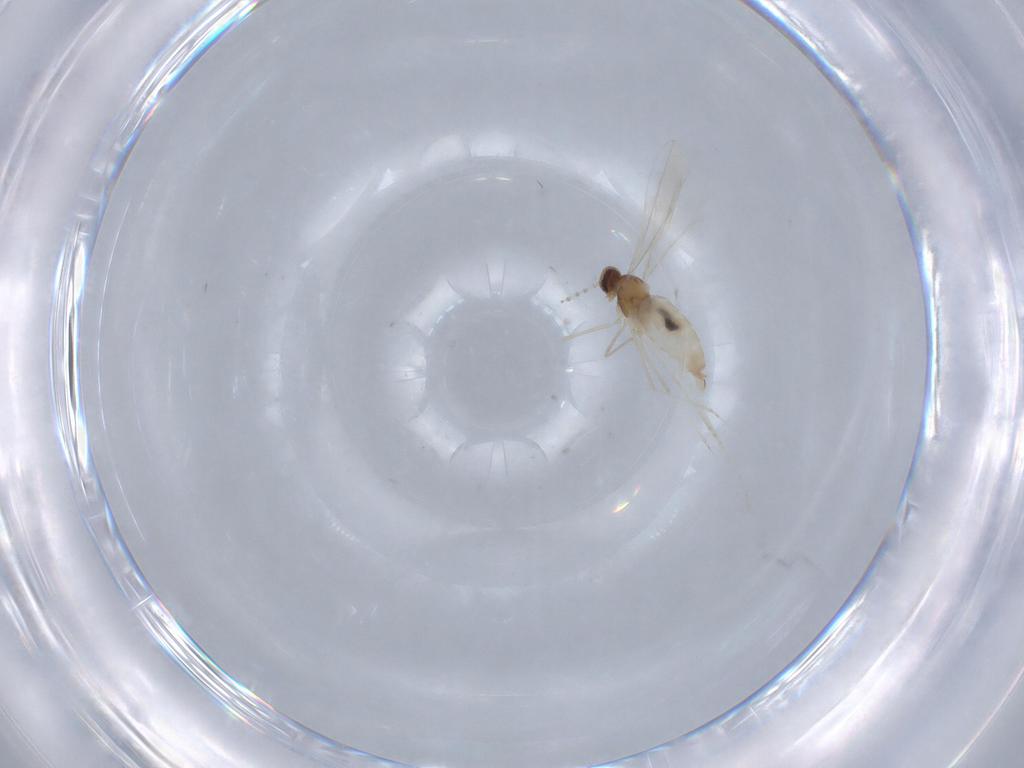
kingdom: Animalia
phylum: Arthropoda
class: Insecta
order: Diptera
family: Cecidomyiidae
